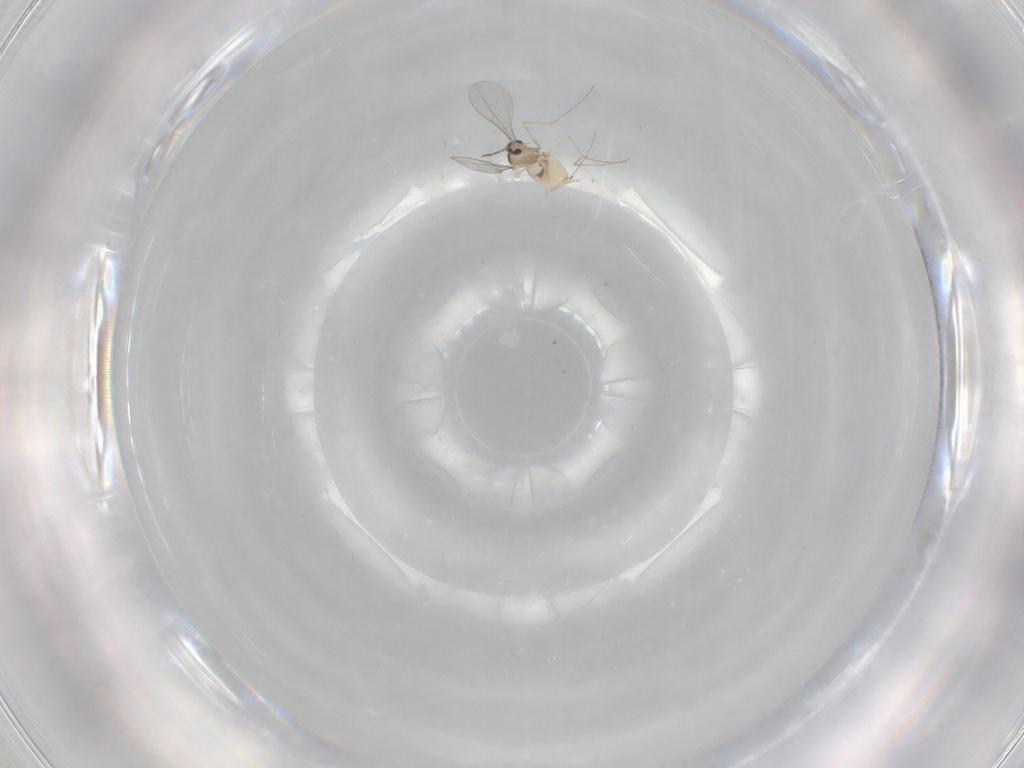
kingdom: Animalia
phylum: Arthropoda
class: Insecta
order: Diptera
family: Cecidomyiidae
